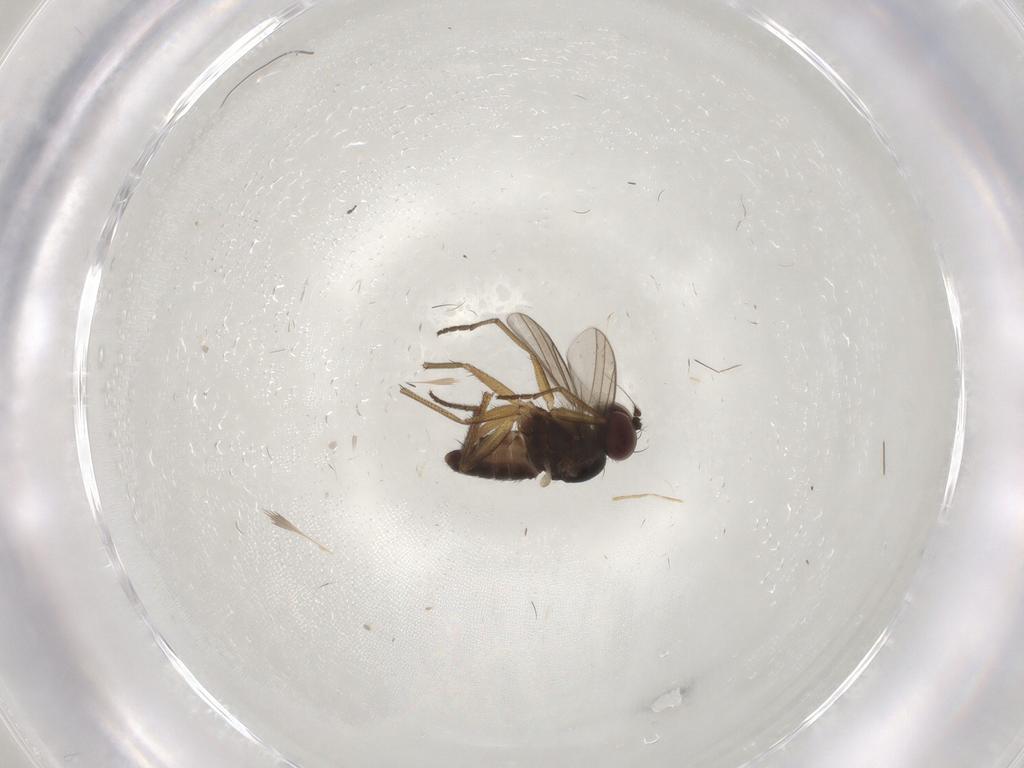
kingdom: Animalia
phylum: Arthropoda
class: Insecta
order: Diptera
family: Dolichopodidae
